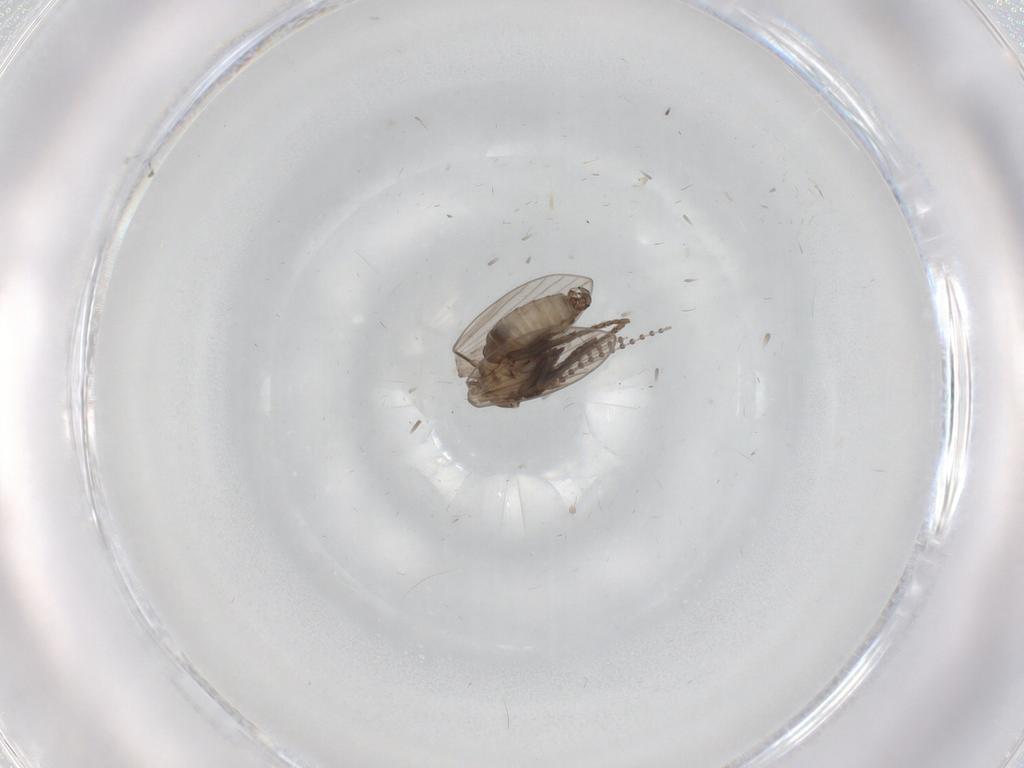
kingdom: Animalia
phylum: Arthropoda
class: Insecta
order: Diptera
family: Psychodidae
